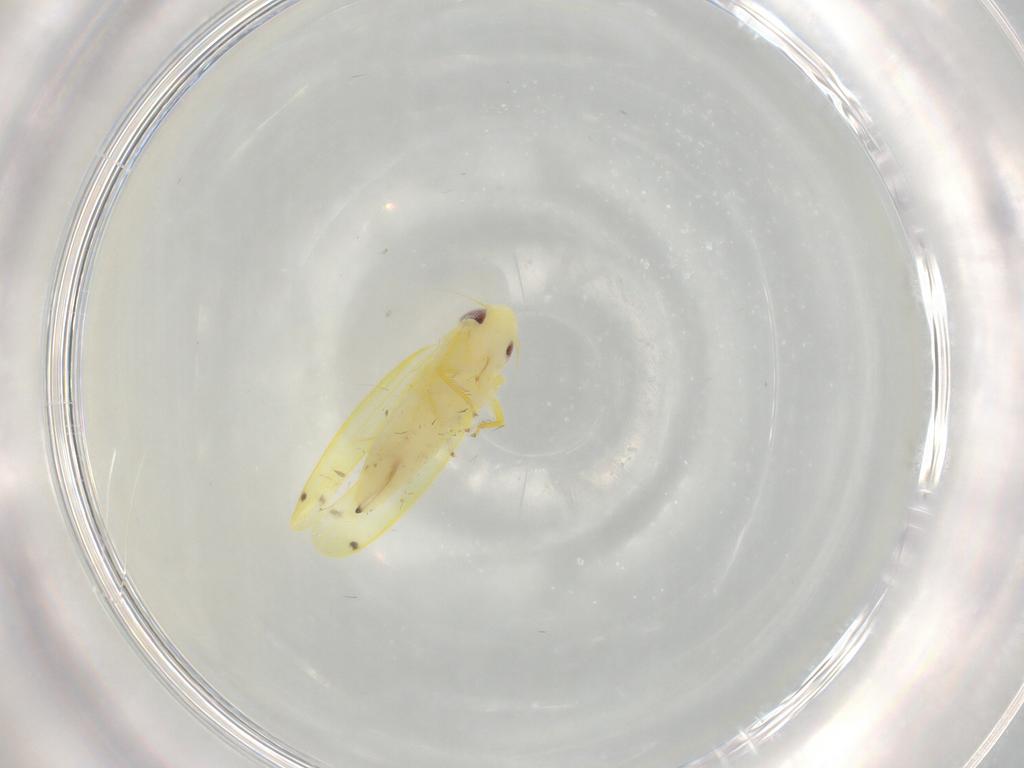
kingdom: Animalia
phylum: Arthropoda
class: Insecta
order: Hemiptera
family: Cicadellidae
